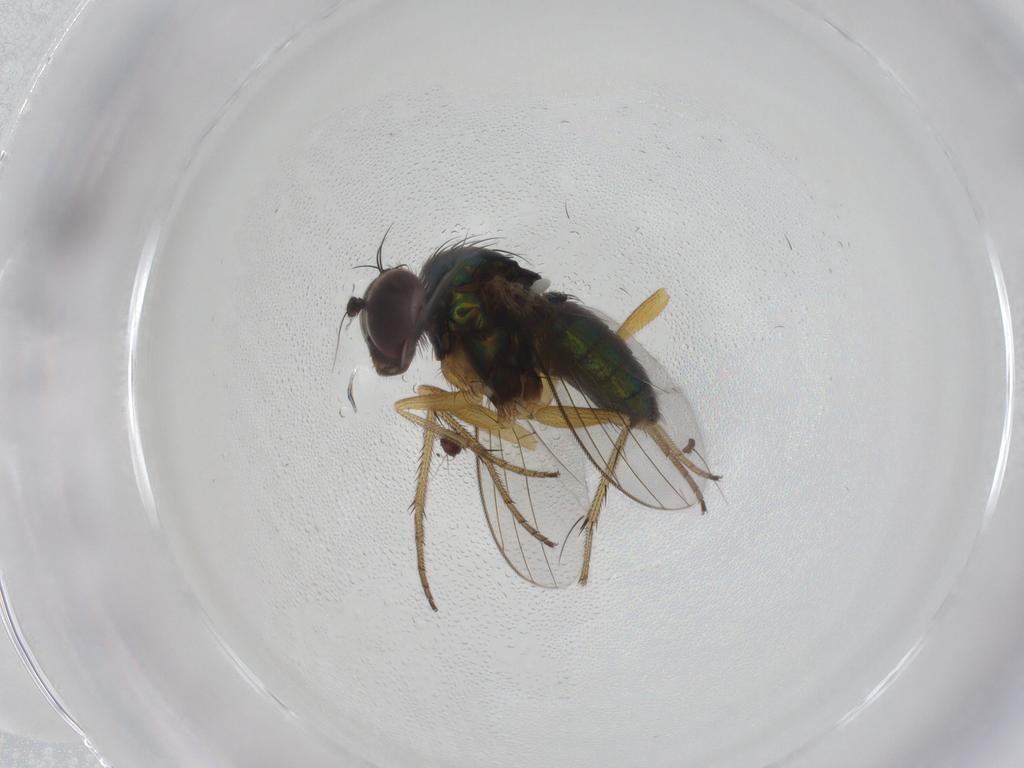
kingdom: Animalia
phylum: Arthropoda
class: Insecta
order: Diptera
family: Dolichopodidae
